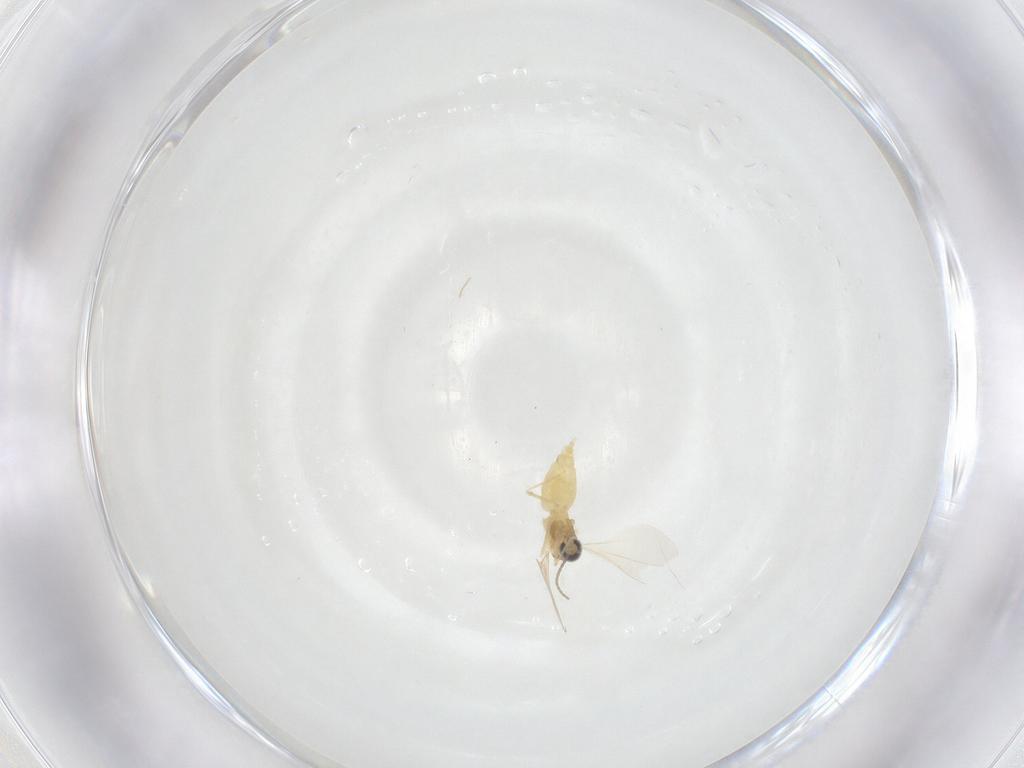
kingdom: Animalia
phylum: Arthropoda
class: Insecta
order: Diptera
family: Cecidomyiidae
